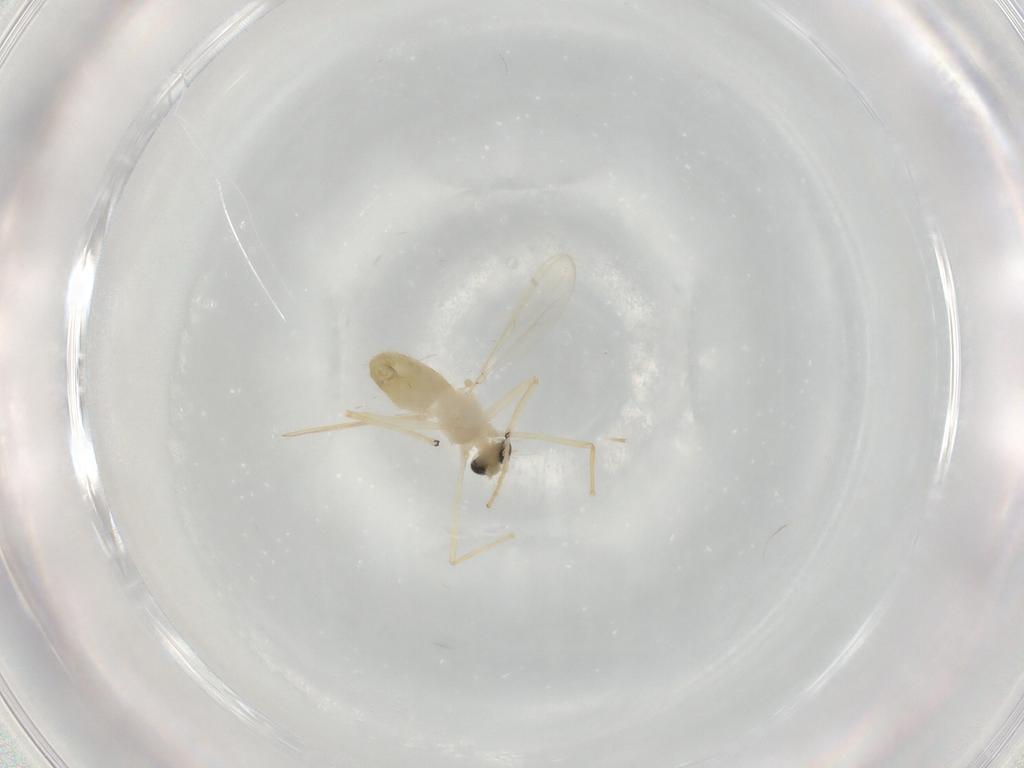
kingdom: Animalia
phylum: Arthropoda
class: Insecta
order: Diptera
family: Chironomidae
